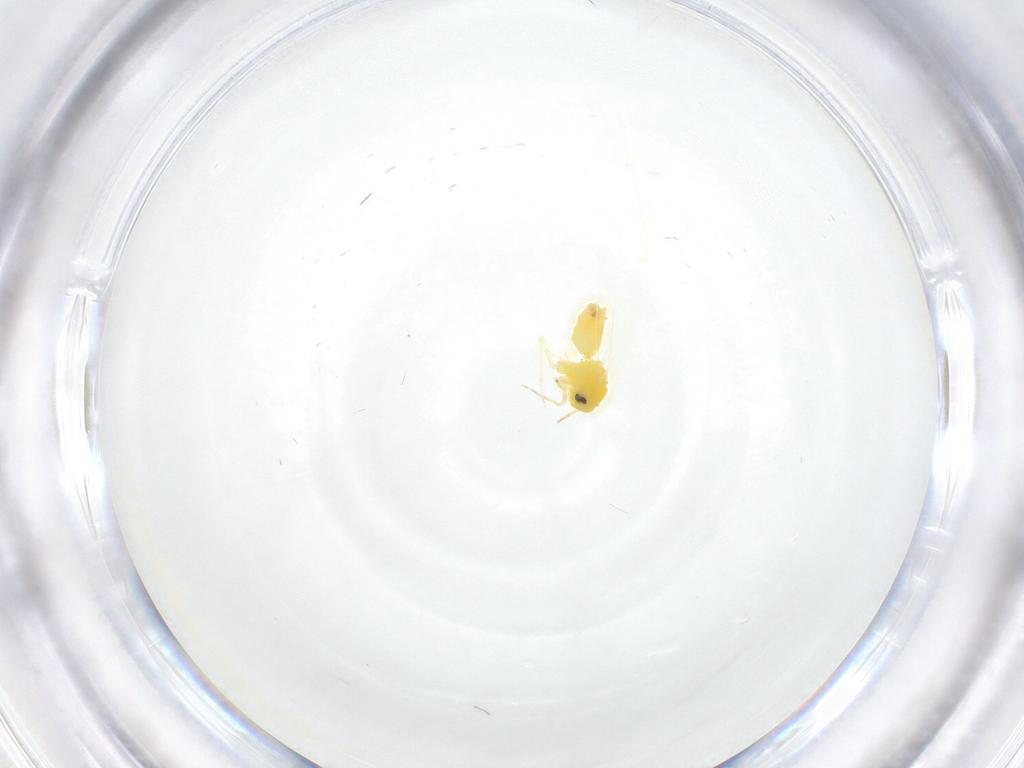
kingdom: Animalia
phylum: Arthropoda
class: Insecta
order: Hemiptera
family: Aleyrodidae
